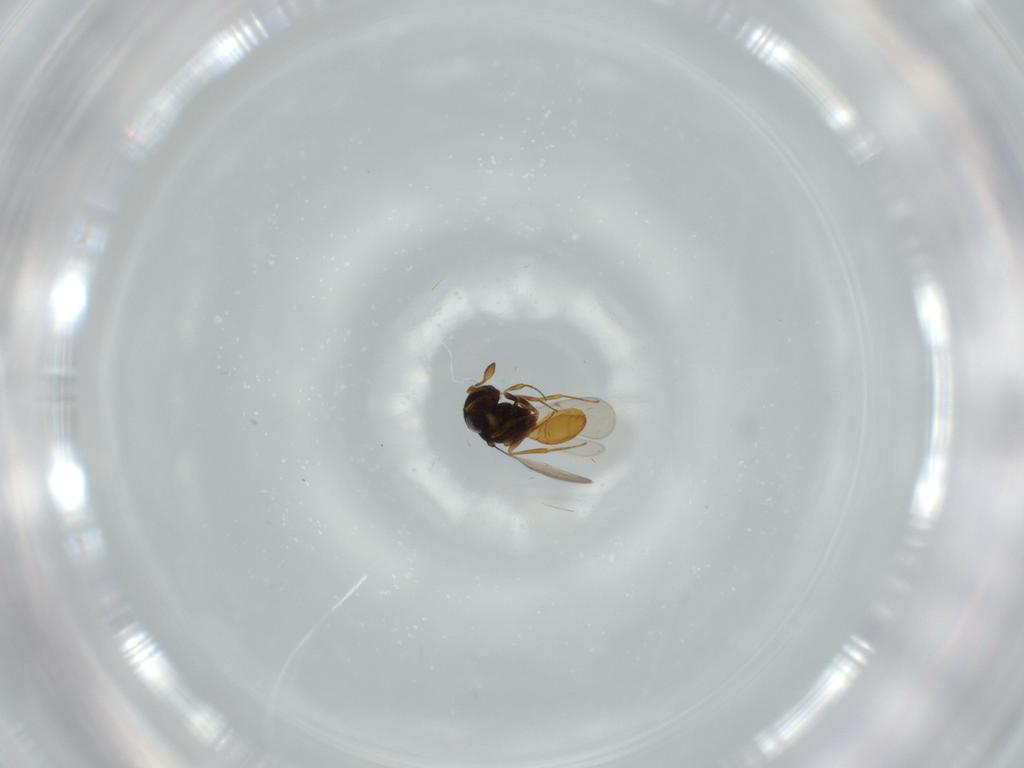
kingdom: Animalia
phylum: Arthropoda
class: Insecta
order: Hymenoptera
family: Scelionidae
